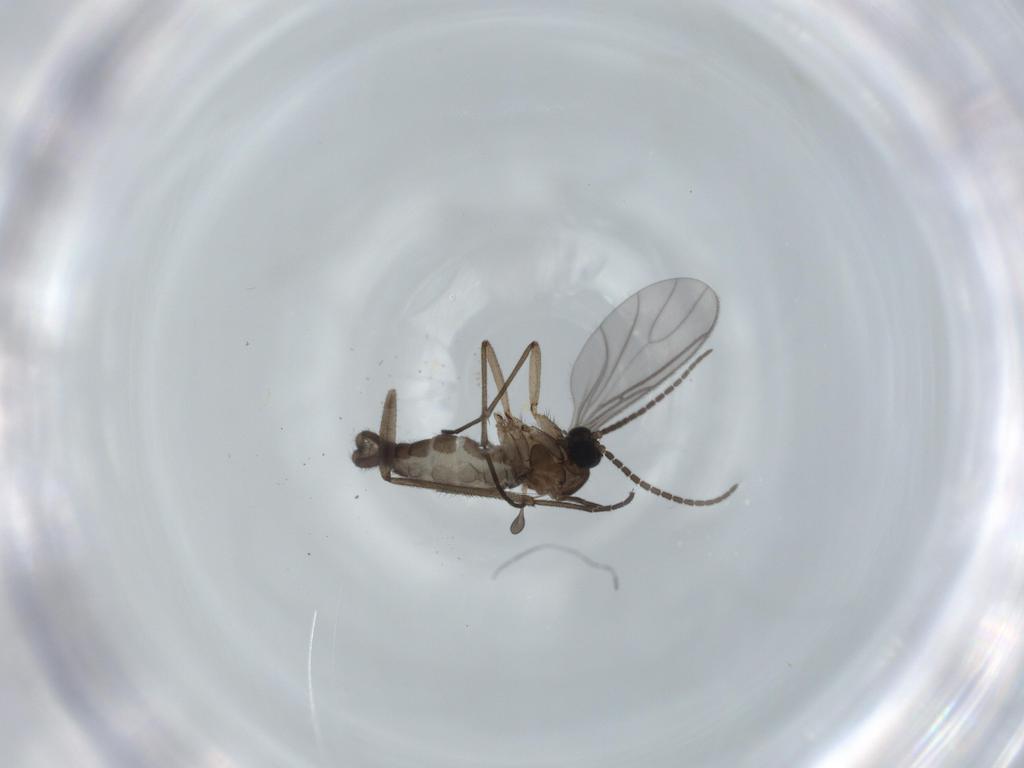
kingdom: Animalia
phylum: Arthropoda
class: Insecta
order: Diptera
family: Sciaridae
